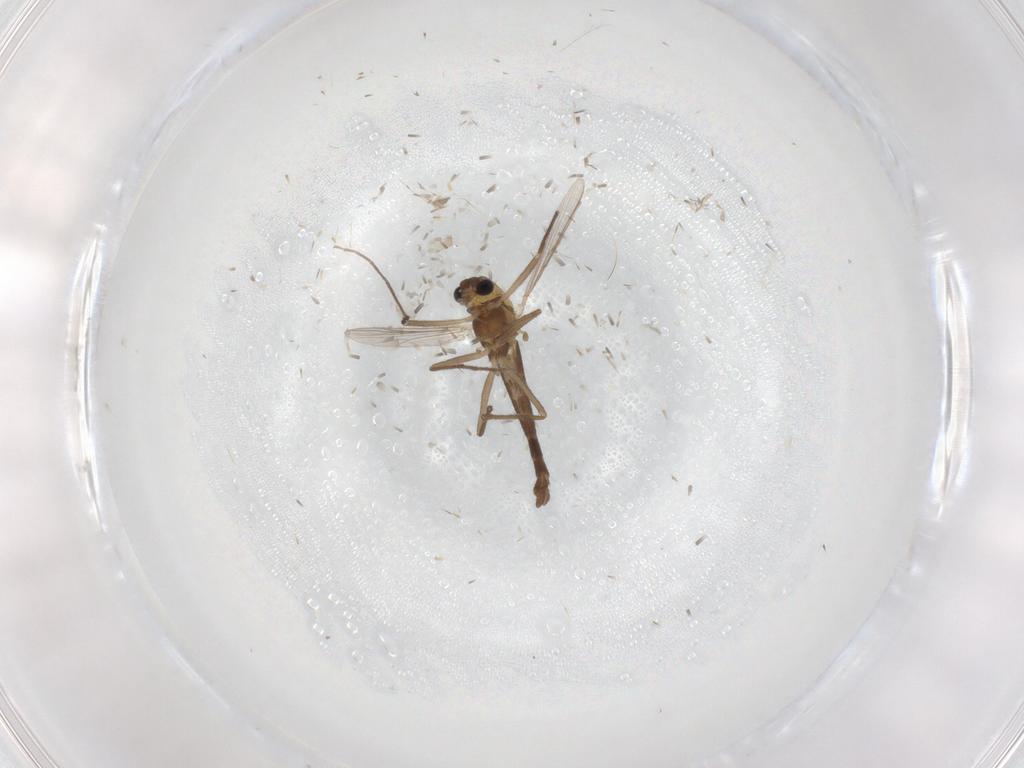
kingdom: Animalia
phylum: Arthropoda
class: Insecta
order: Diptera
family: Chironomidae
